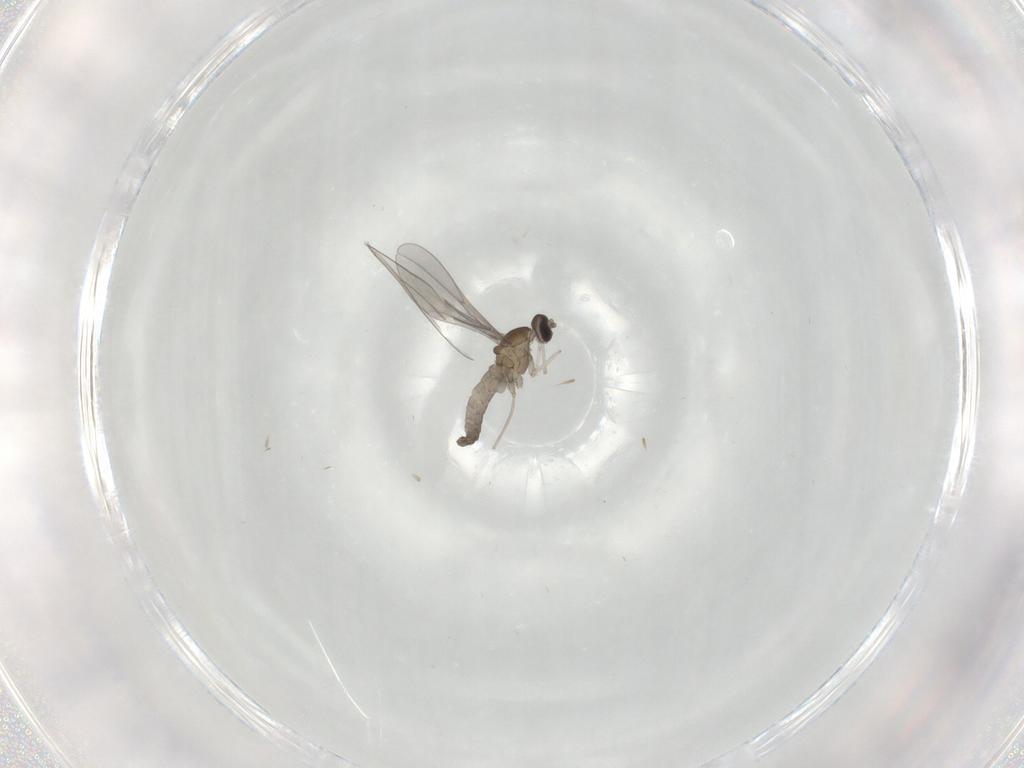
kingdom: Animalia
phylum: Arthropoda
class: Insecta
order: Diptera
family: Cecidomyiidae
